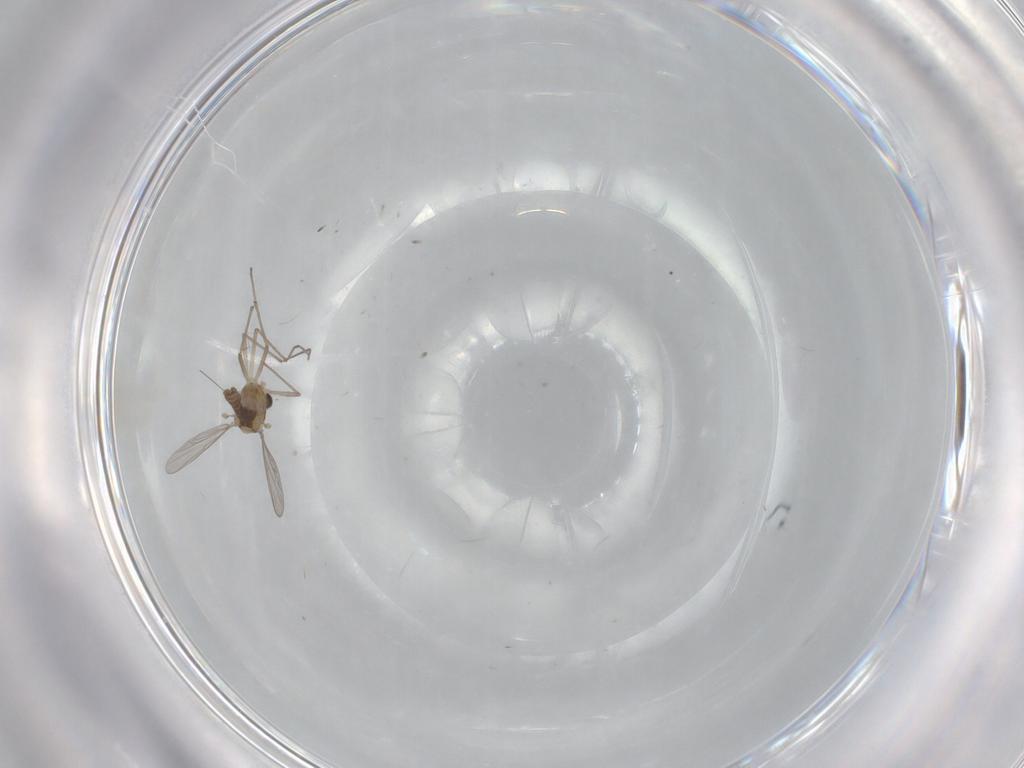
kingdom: Animalia
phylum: Arthropoda
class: Insecta
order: Diptera
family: Chironomidae
